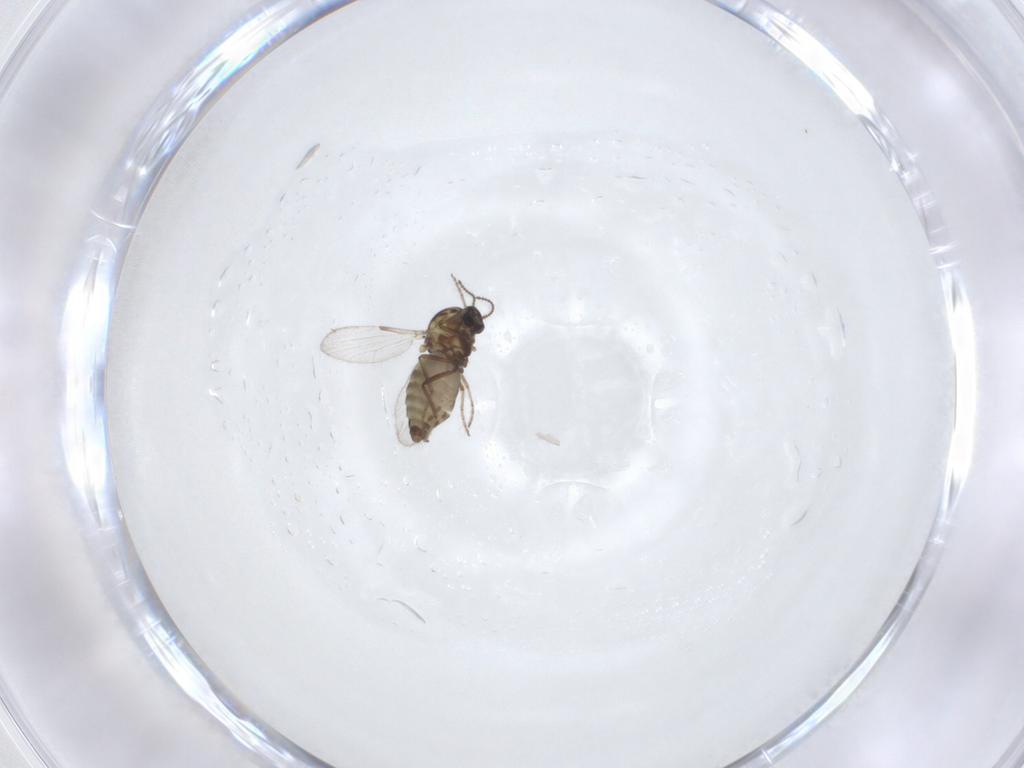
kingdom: Animalia
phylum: Arthropoda
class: Insecta
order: Diptera
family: Ceratopogonidae
